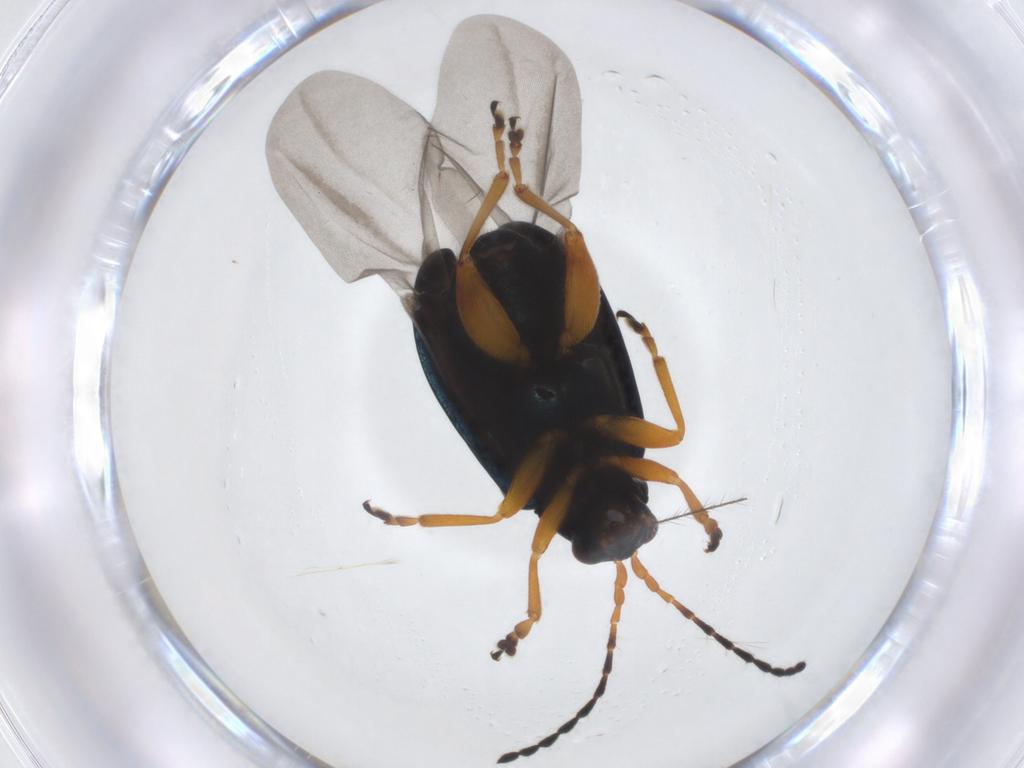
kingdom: Animalia
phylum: Arthropoda
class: Insecta
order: Coleoptera
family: Chrysomelidae
